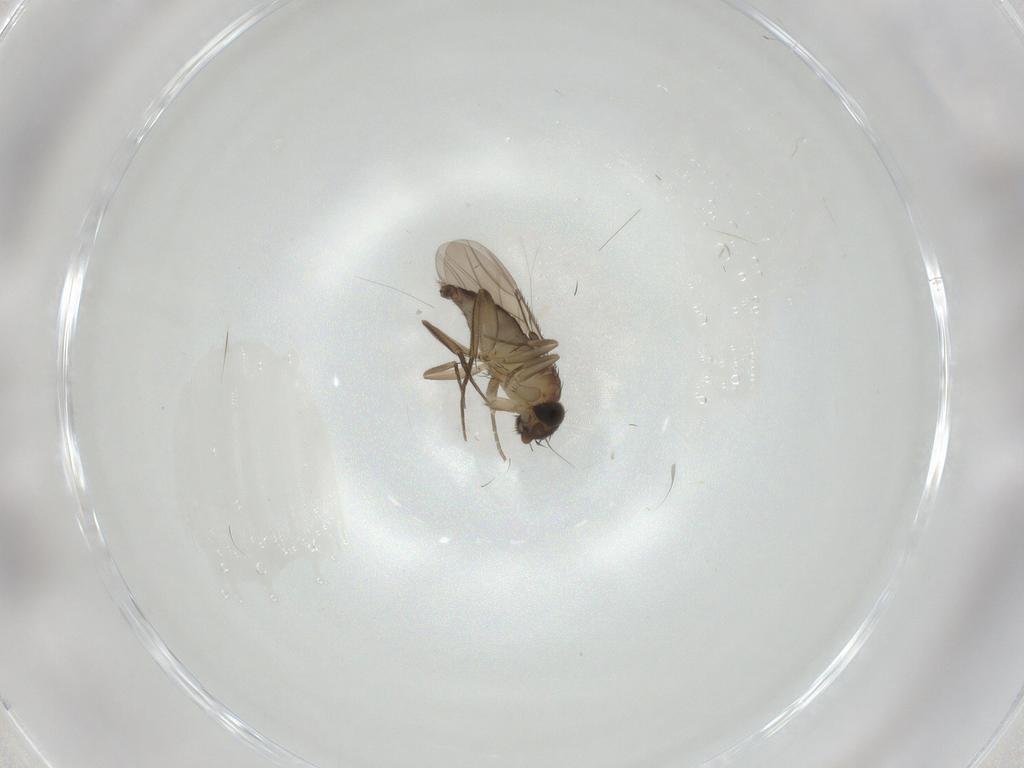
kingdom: Animalia
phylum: Arthropoda
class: Insecta
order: Diptera
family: Phoridae
